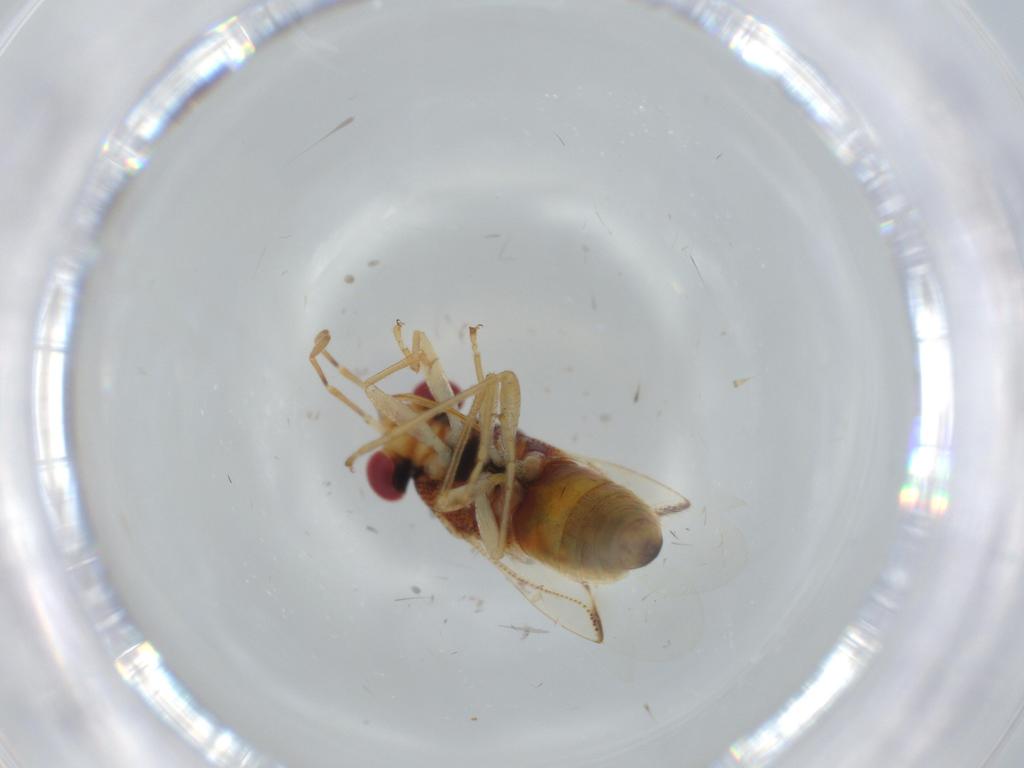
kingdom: Animalia
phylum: Arthropoda
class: Insecta
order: Hemiptera
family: Geocoridae
